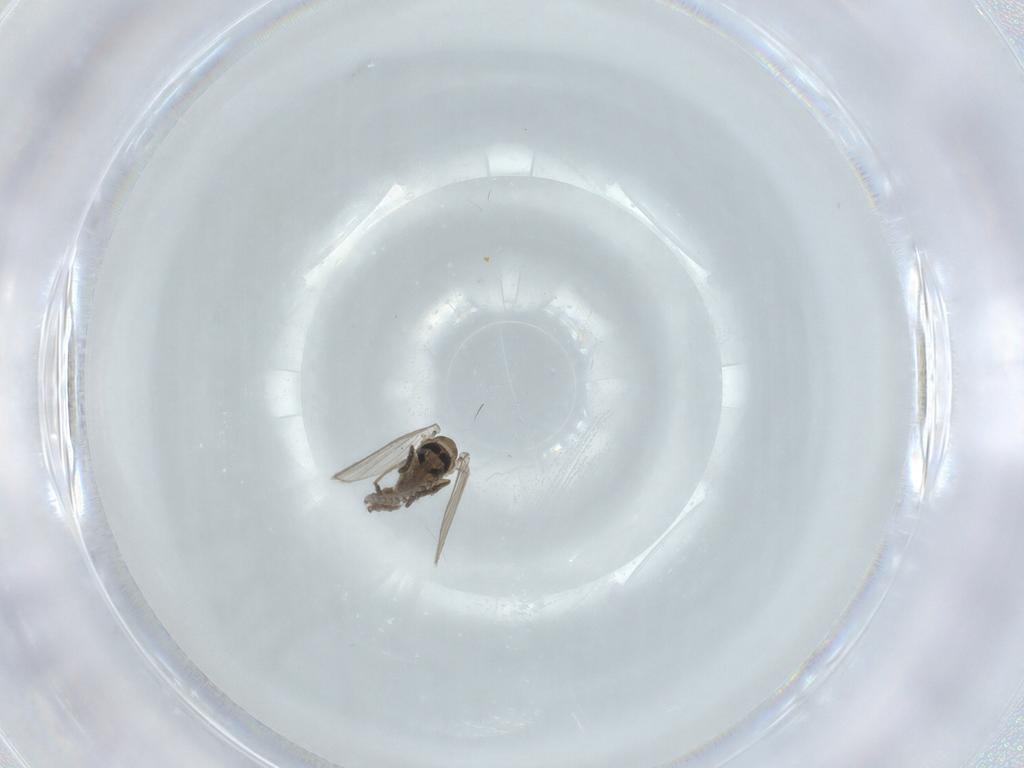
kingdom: Animalia
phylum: Arthropoda
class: Insecta
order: Diptera
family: Psychodidae
